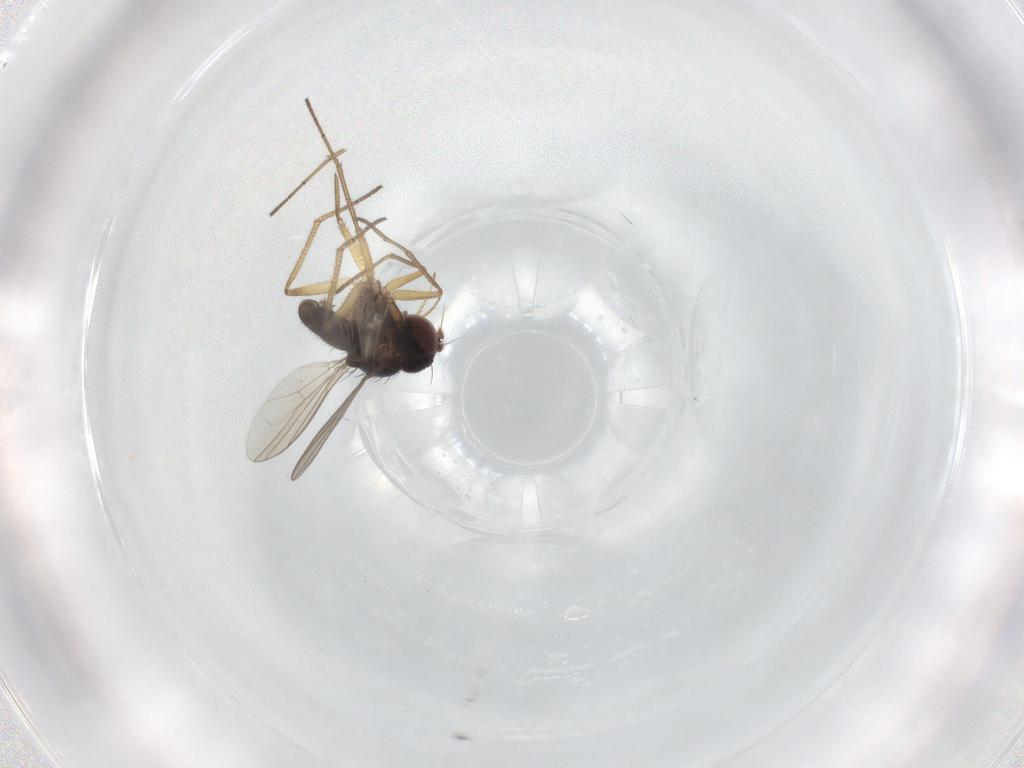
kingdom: Animalia
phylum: Arthropoda
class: Insecta
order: Diptera
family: Dolichopodidae
